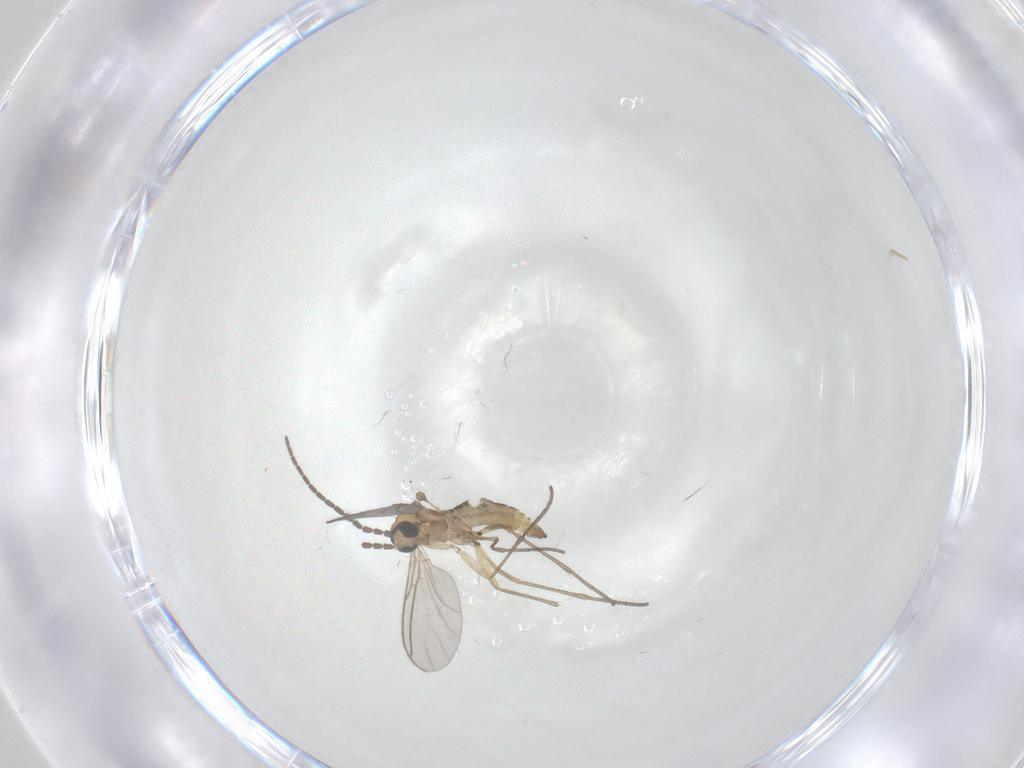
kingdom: Animalia
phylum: Arthropoda
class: Insecta
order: Diptera
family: Sciaridae
